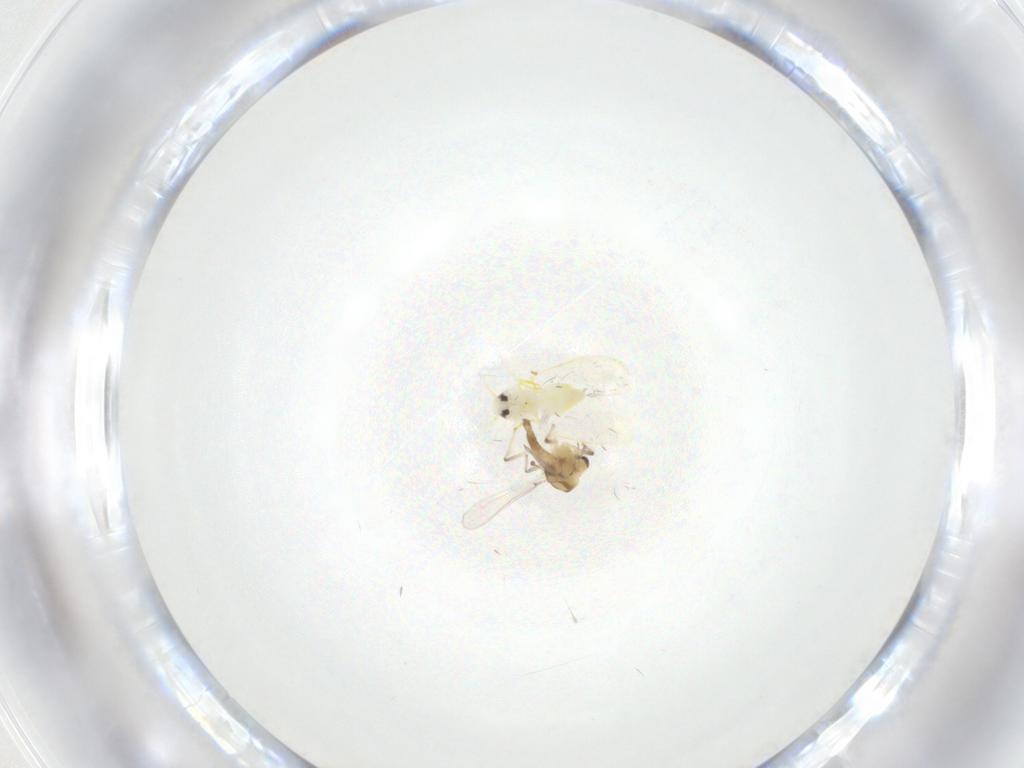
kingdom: Animalia
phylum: Arthropoda
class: Insecta
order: Diptera
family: Chironomidae
